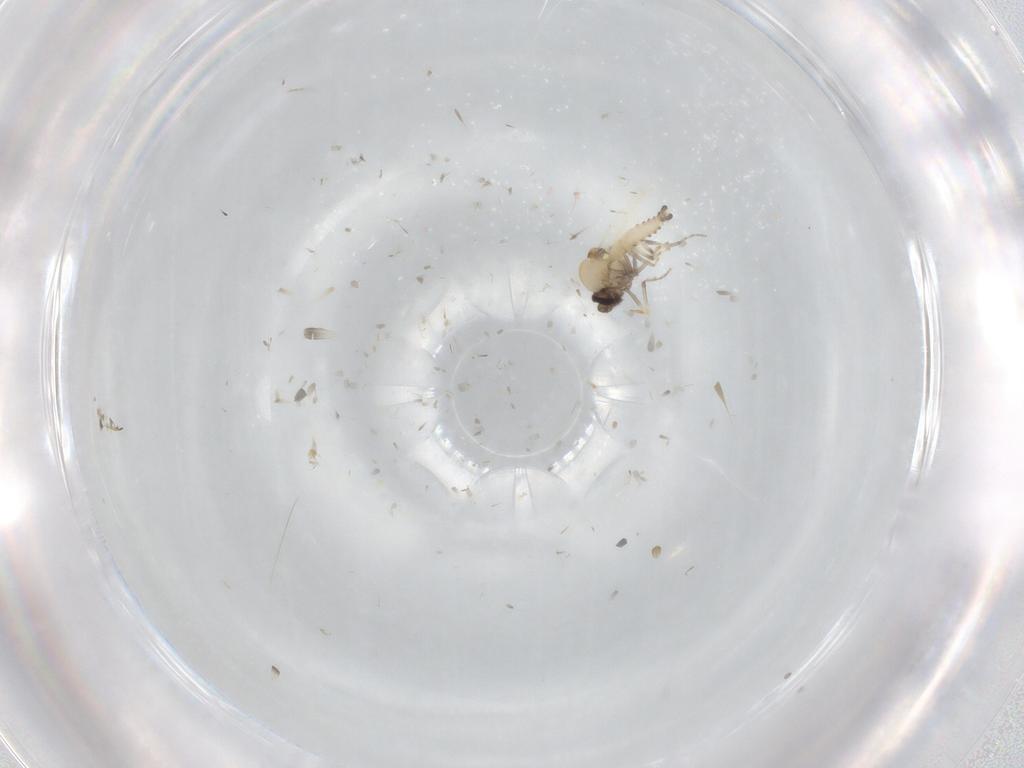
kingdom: Animalia
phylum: Arthropoda
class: Insecta
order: Diptera
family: Ceratopogonidae
